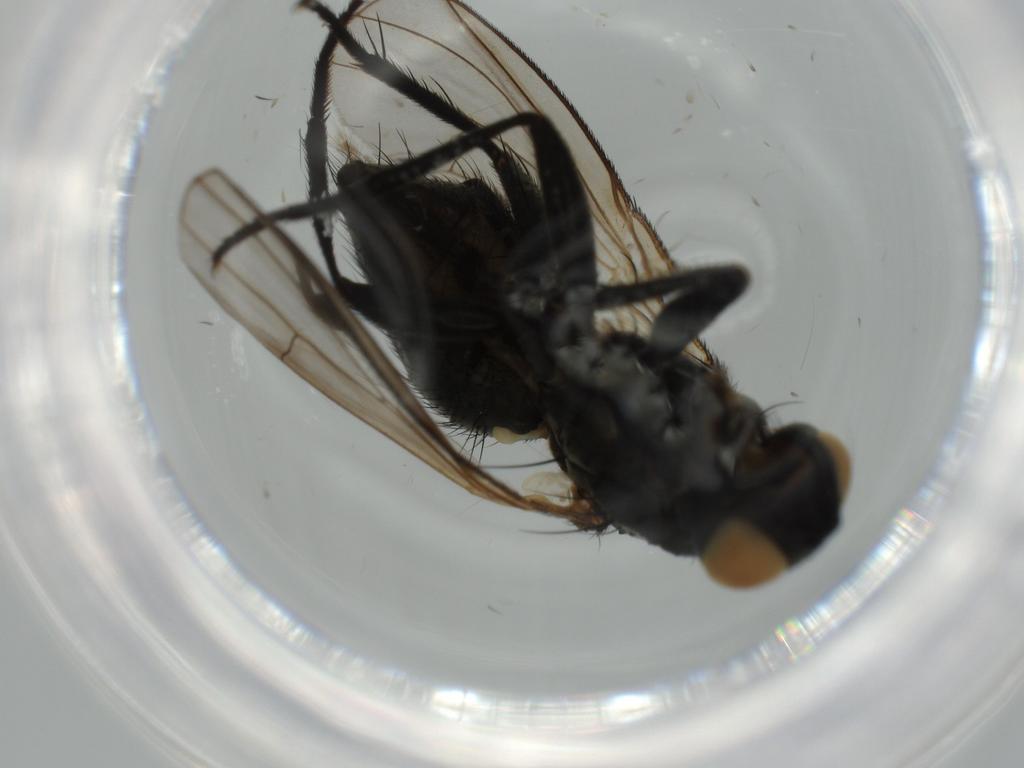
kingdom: Animalia
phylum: Arthropoda
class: Insecta
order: Diptera
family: Muscidae
